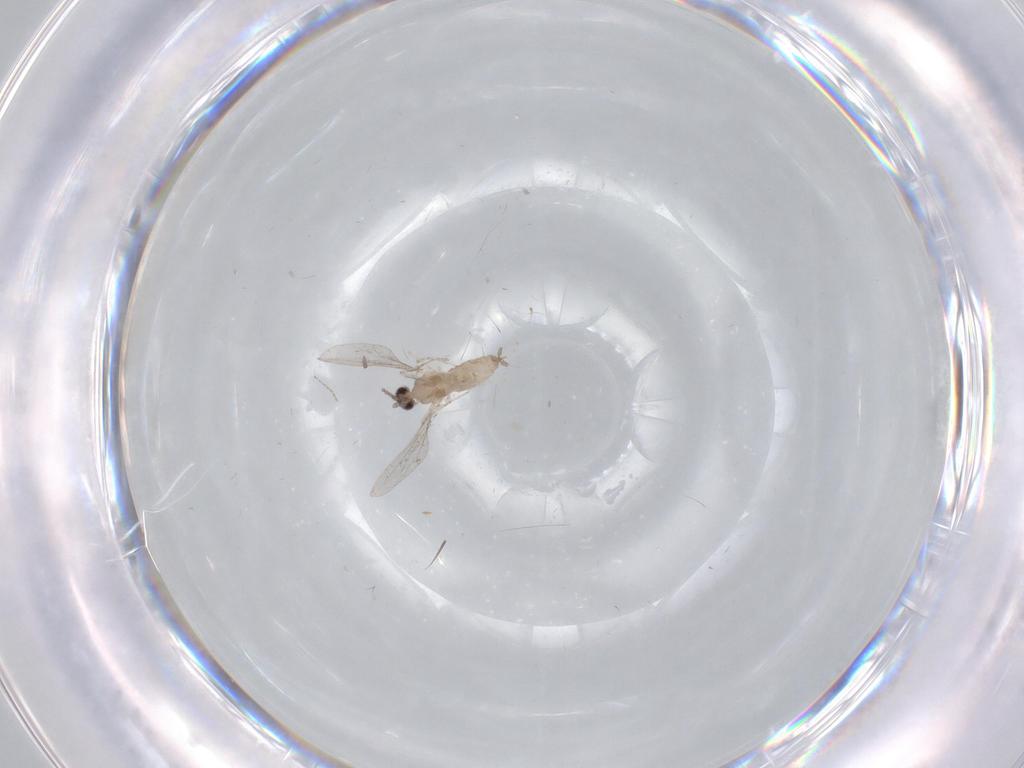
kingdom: Animalia
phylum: Arthropoda
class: Insecta
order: Diptera
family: Cecidomyiidae
